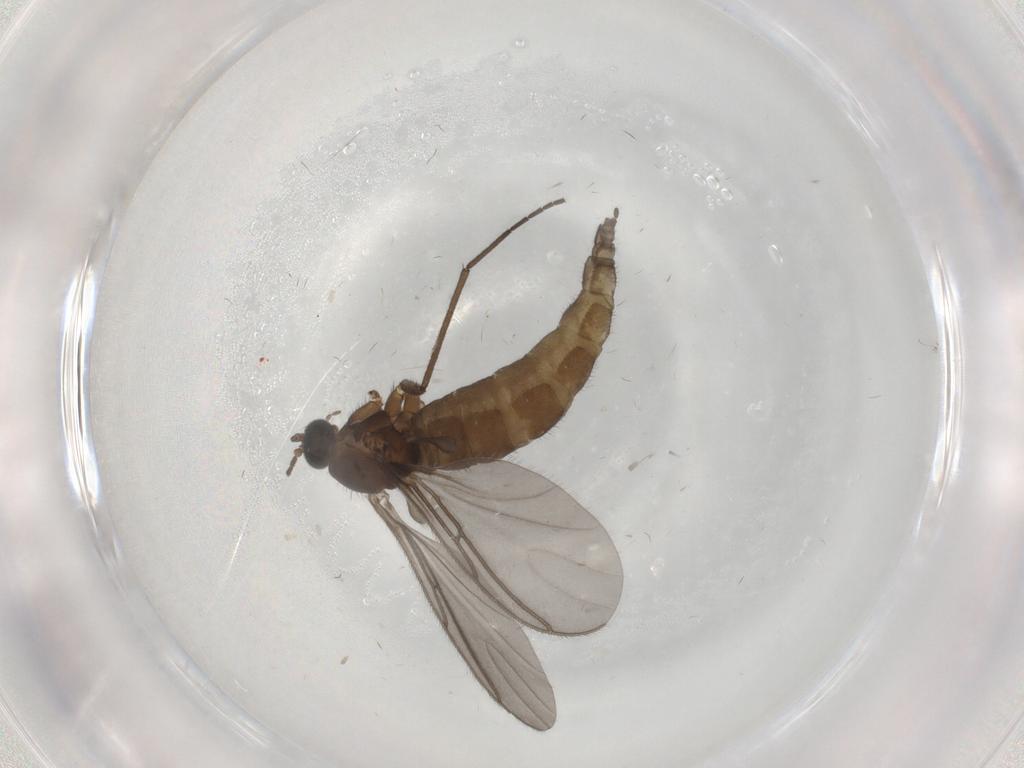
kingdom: Animalia
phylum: Arthropoda
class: Insecta
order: Diptera
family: Sciaridae
